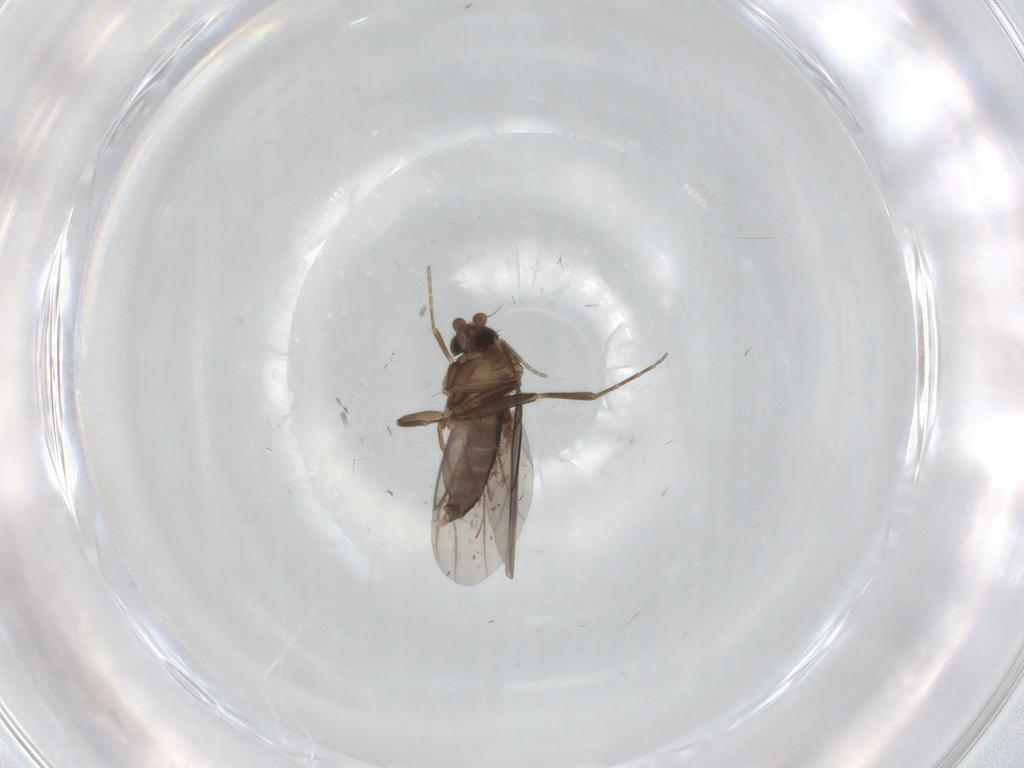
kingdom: Animalia
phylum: Arthropoda
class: Insecta
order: Diptera
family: Phoridae
